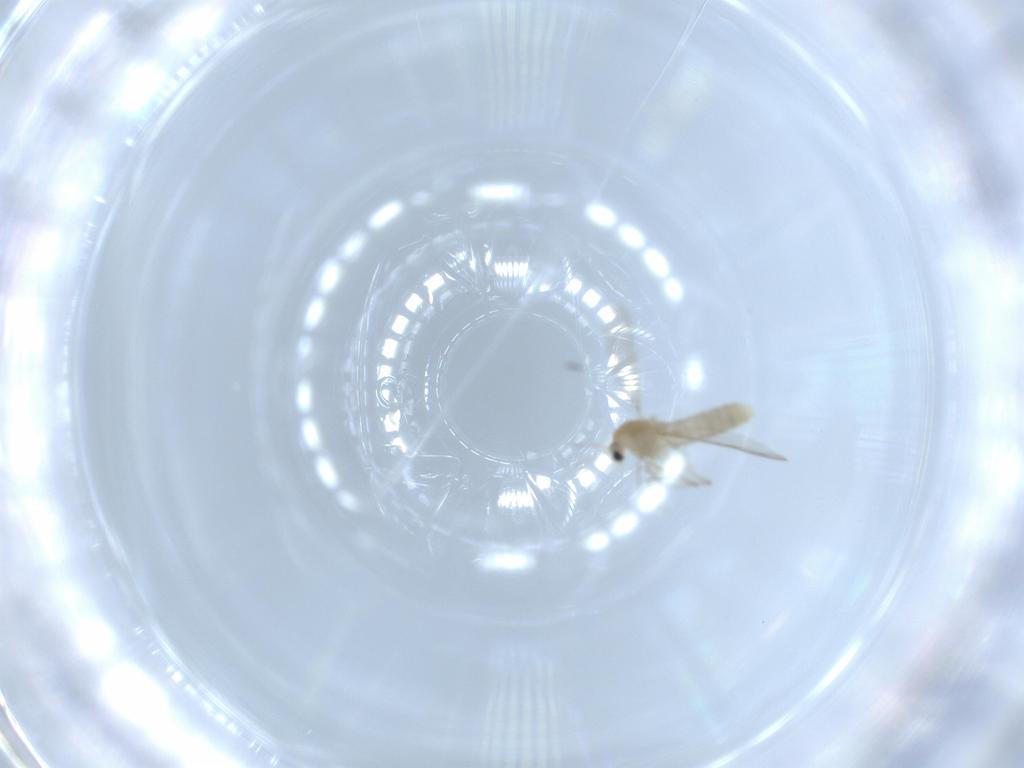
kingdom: Animalia
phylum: Arthropoda
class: Insecta
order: Diptera
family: Chironomidae
